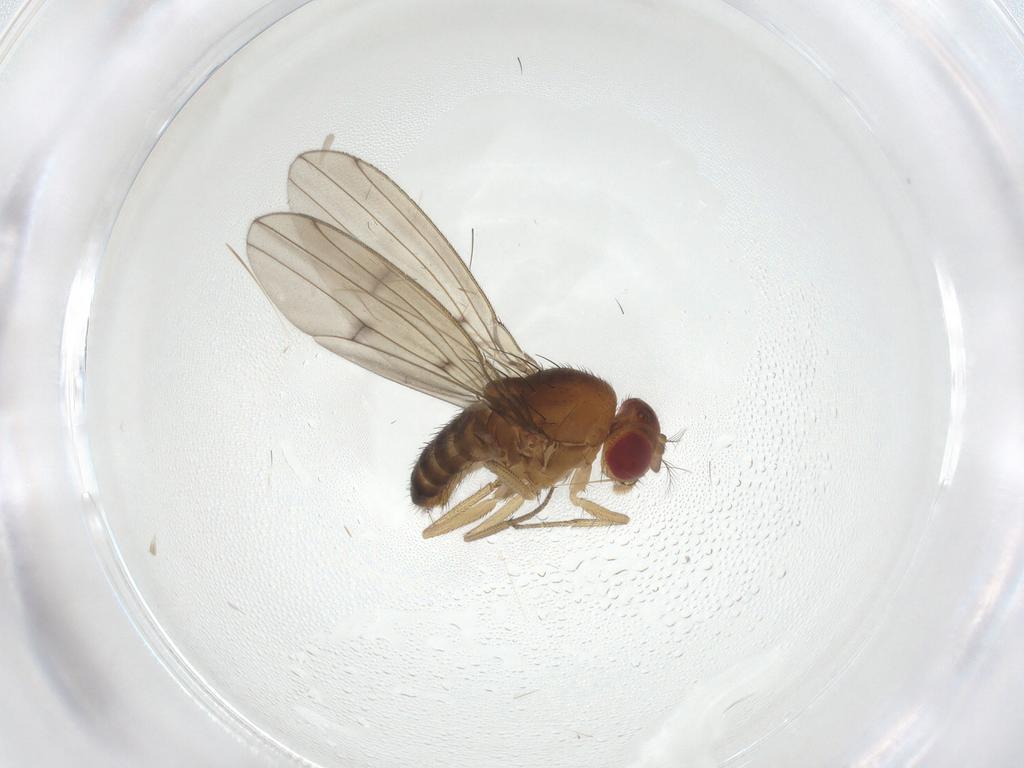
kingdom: Animalia
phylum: Arthropoda
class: Insecta
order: Diptera
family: Drosophilidae
